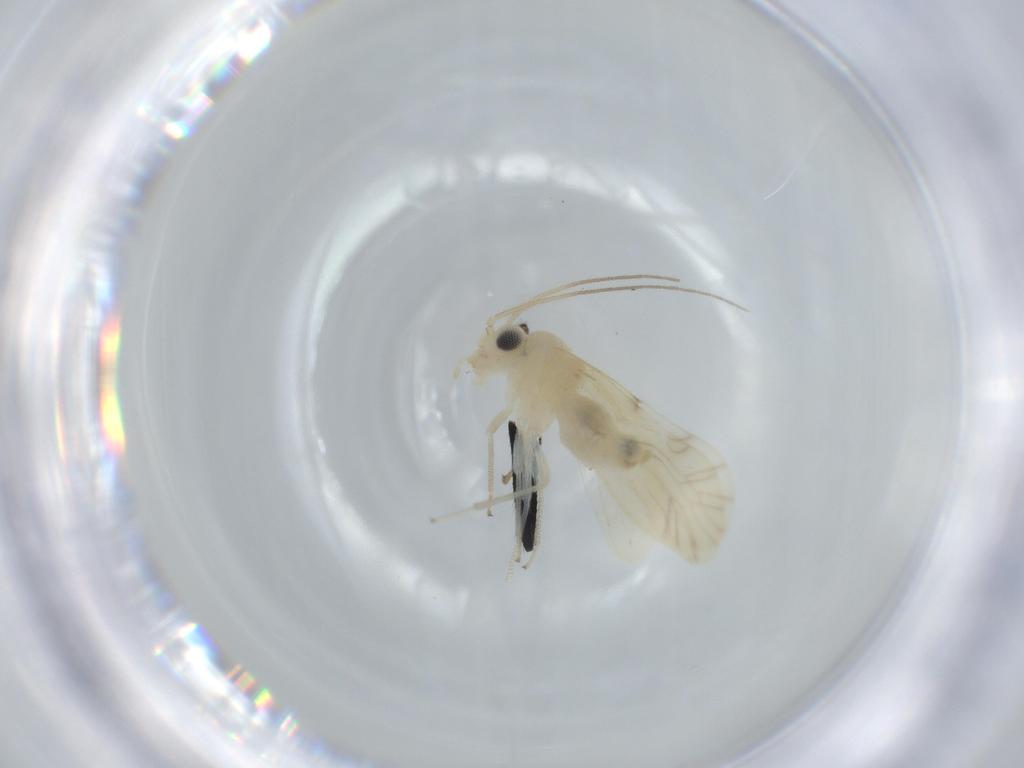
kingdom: Animalia
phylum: Arthropoda
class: Insecta
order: Psocodea
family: Caeciliusidae
